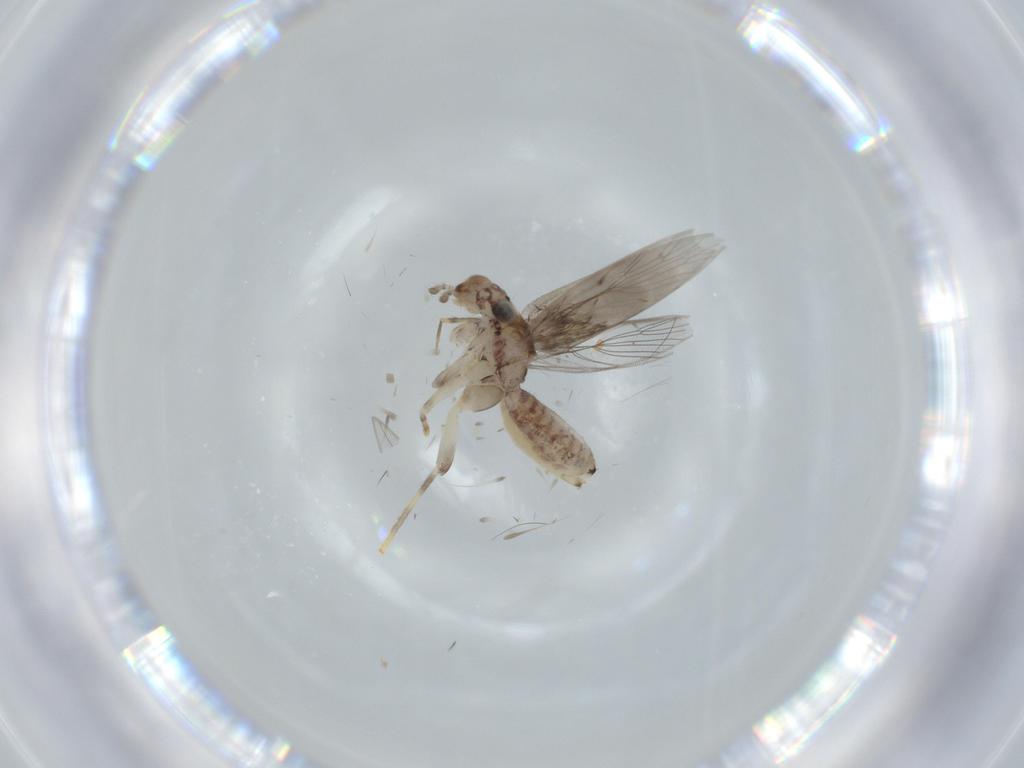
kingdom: Animalia
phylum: Arthropoda
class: Insecta
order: Psocodea
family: Lepidopsocidae
